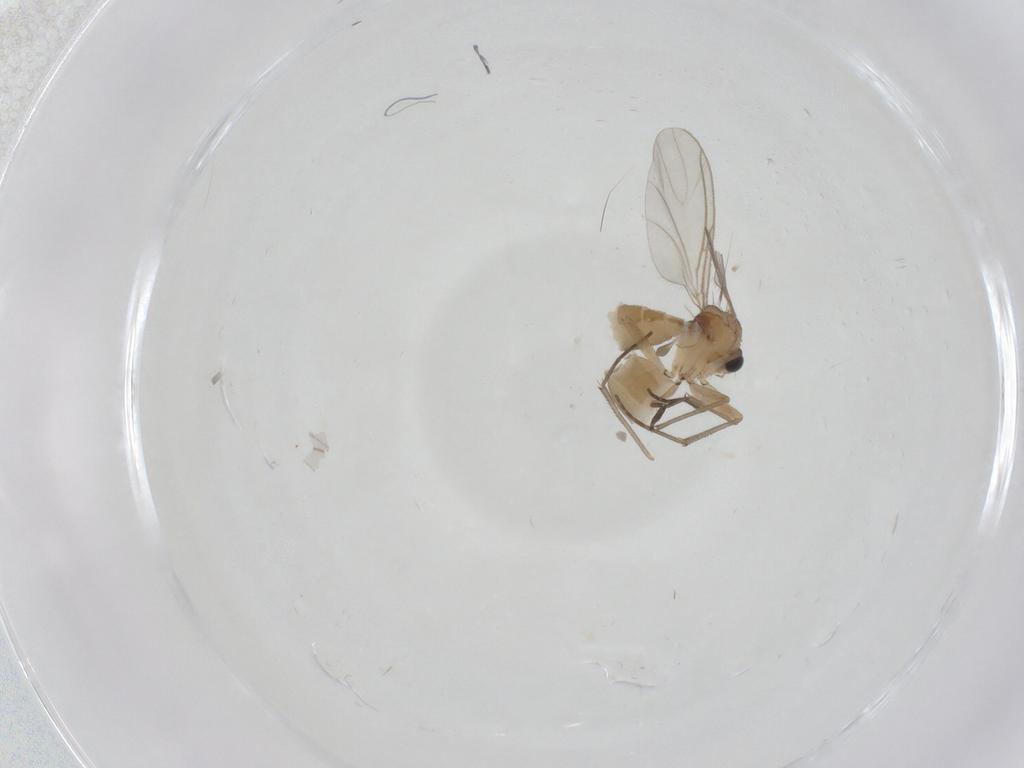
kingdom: Animalia
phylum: Arthropoda
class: Insecta
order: Diptera
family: Sciaridae
